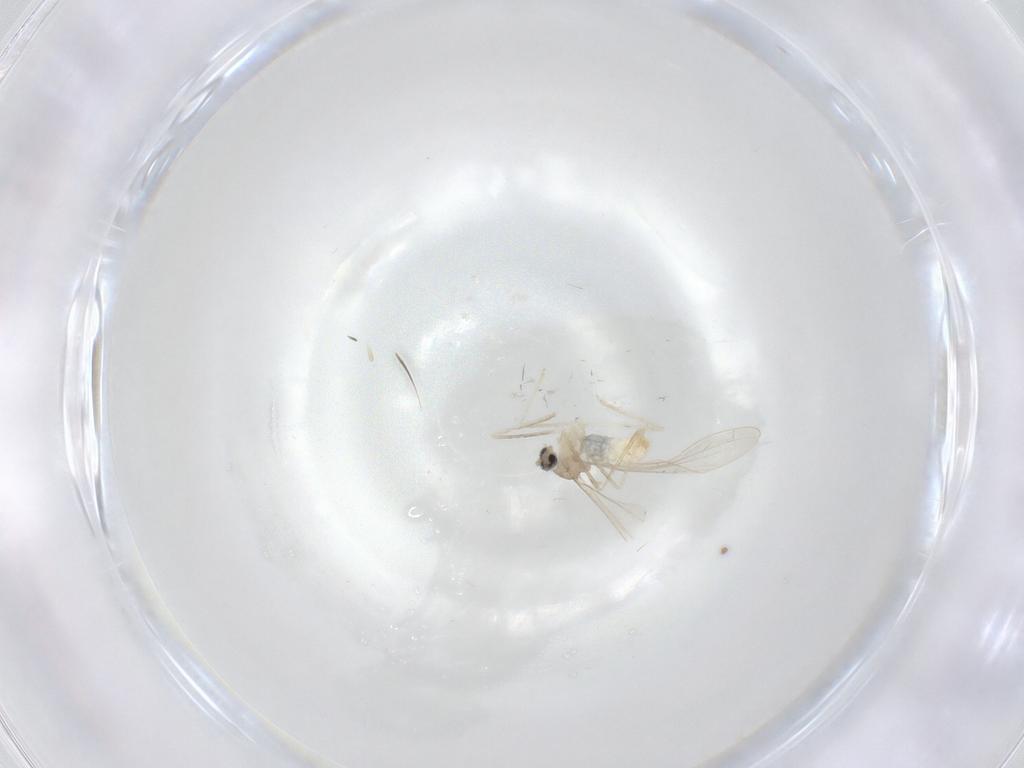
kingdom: Animalia
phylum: Arthropoda
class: Insecta
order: Diptera
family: Cecidomyiidae
